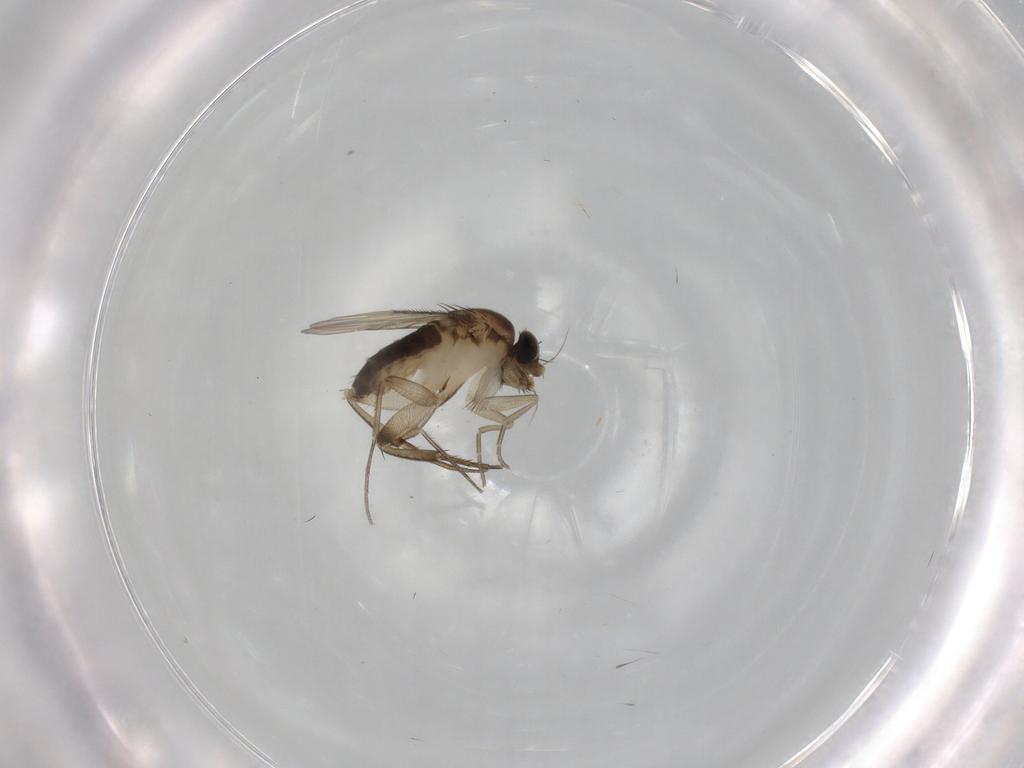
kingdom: Animalia
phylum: Arthropoda
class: Insecta
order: Diptera
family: Phoridae
